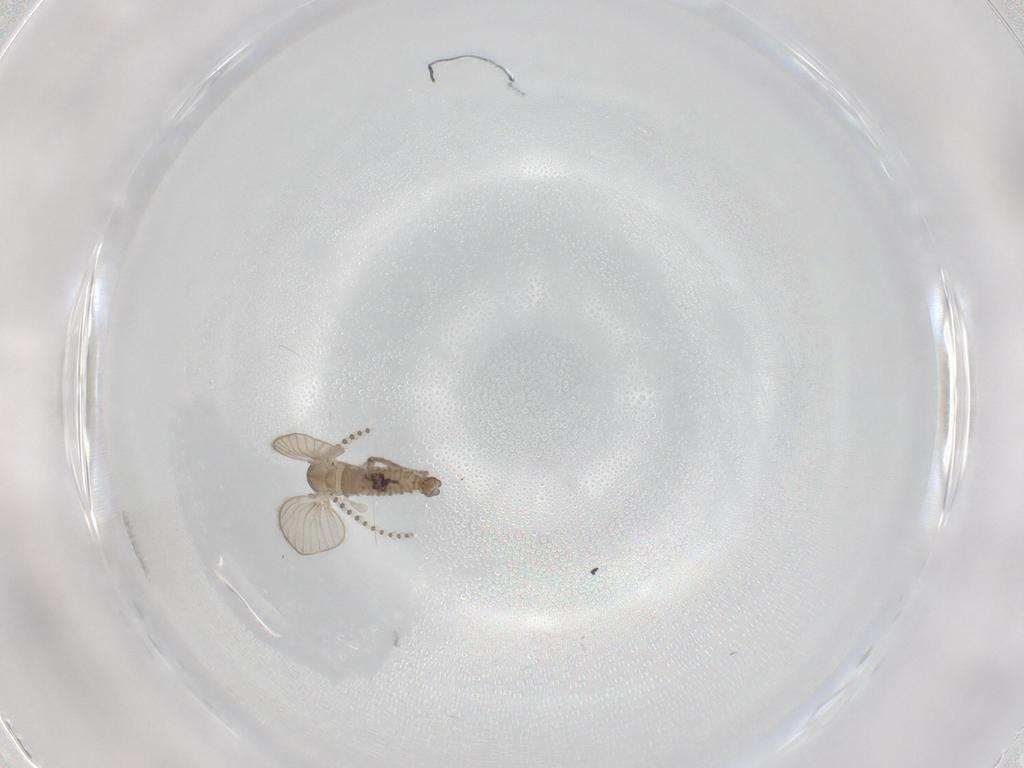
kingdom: Animalia
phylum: Arthropoda
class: Insecta
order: Diptera
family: Psychodidae
